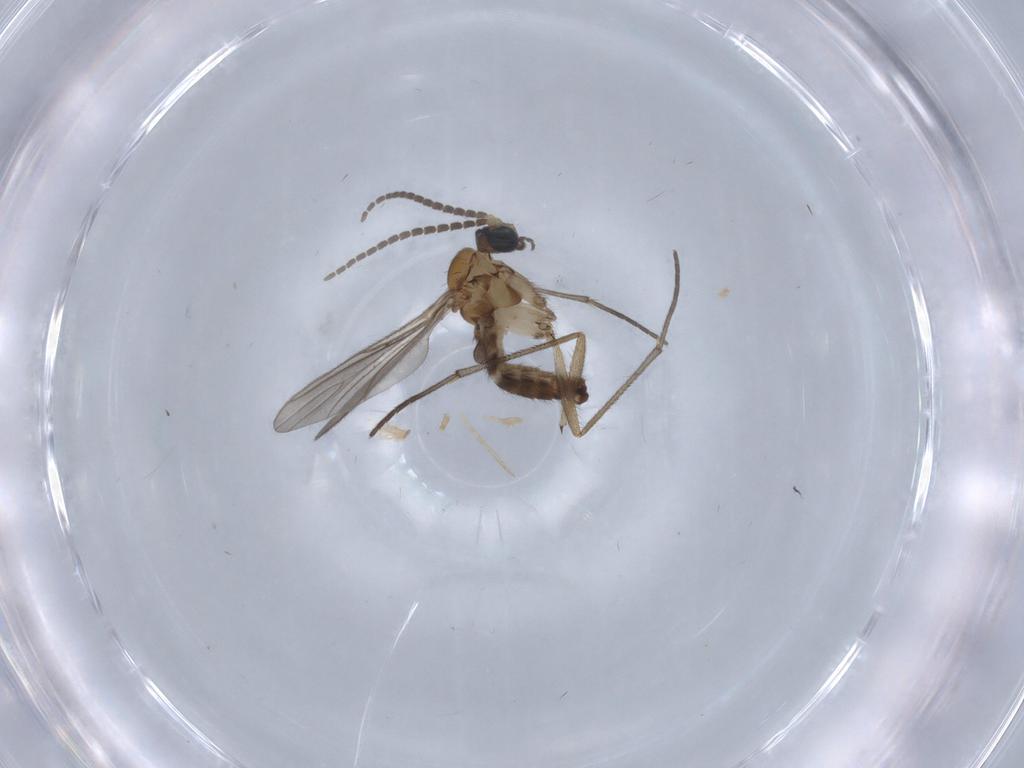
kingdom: Animalia
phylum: Arthropoda
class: Insecta
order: Diptera
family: Sciaridae
